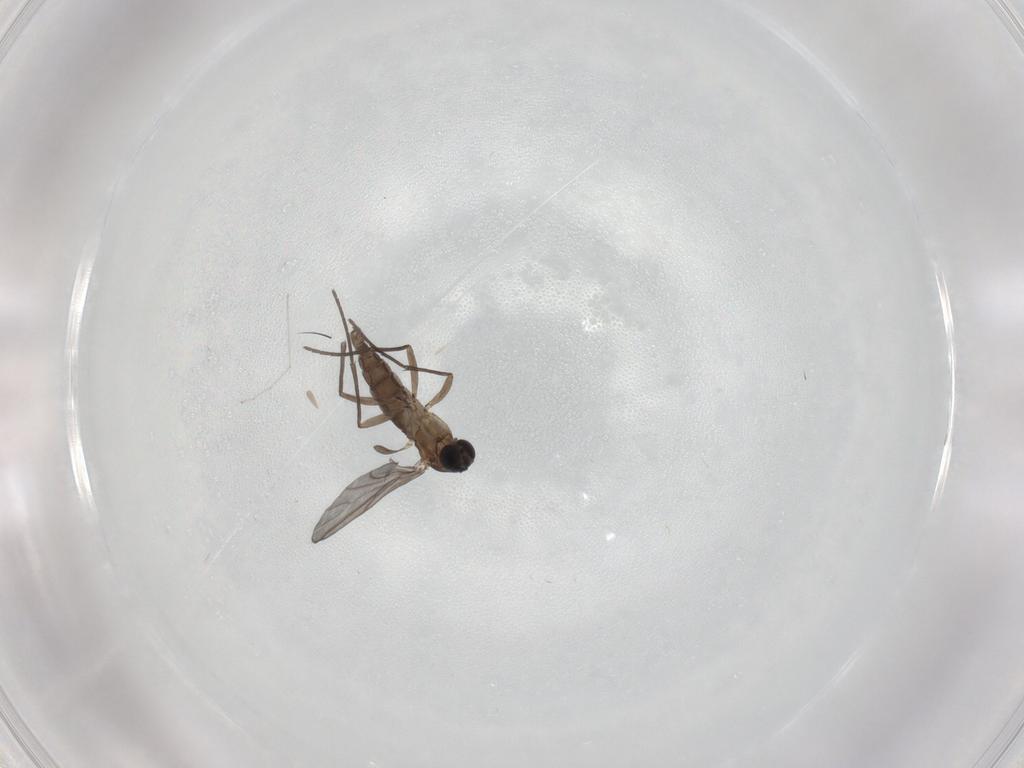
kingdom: Animalia
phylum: Arthropoda
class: Insecta
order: Diptera
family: Sciaridae
